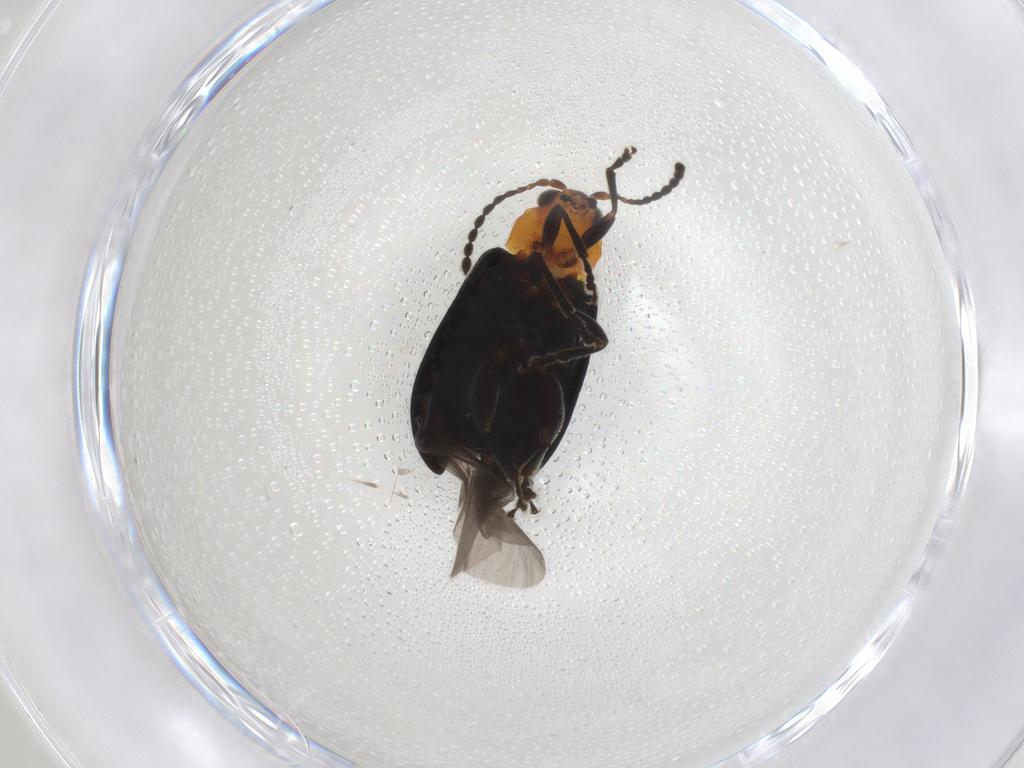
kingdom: Animalia
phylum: Arthropoda
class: Insecta
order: Coleoptera
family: Chrysomelidae
